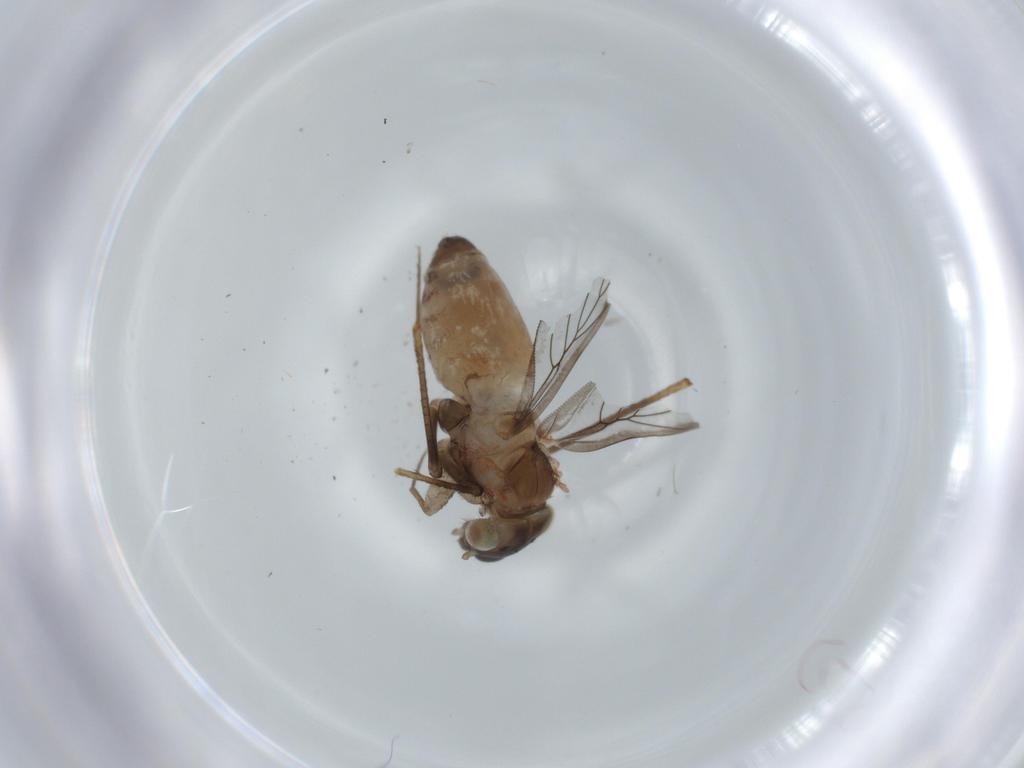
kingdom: Animalia
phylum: Arthropoda
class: Insecta
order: Psocodea
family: Lepidopsocidae
